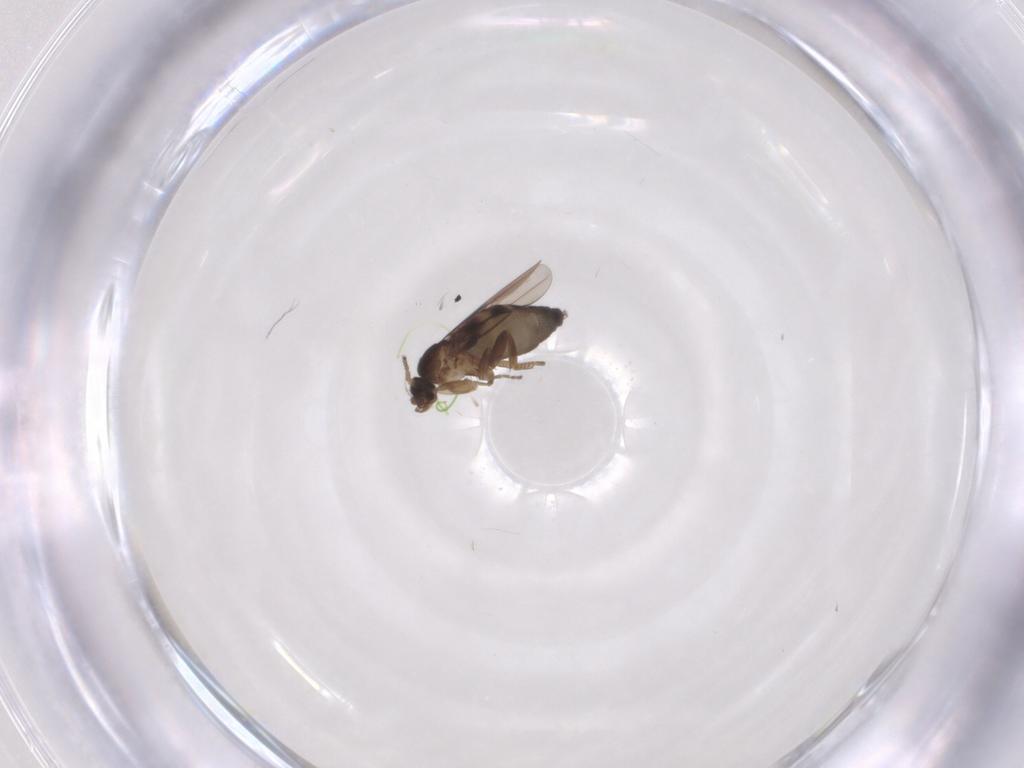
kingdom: Animalia
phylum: Arthropoda
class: Insecta
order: Diptera
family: Phoridae
